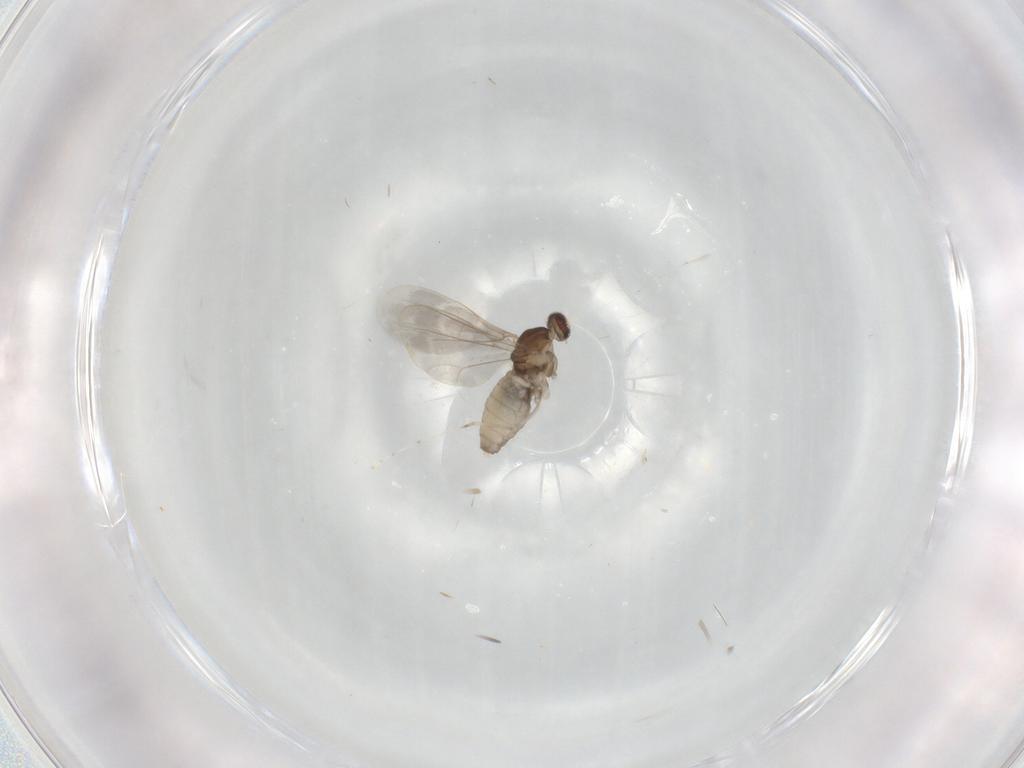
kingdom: Animalia
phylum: Arthropoda
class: Insecta
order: Diptera
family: Cecidomyiidae
